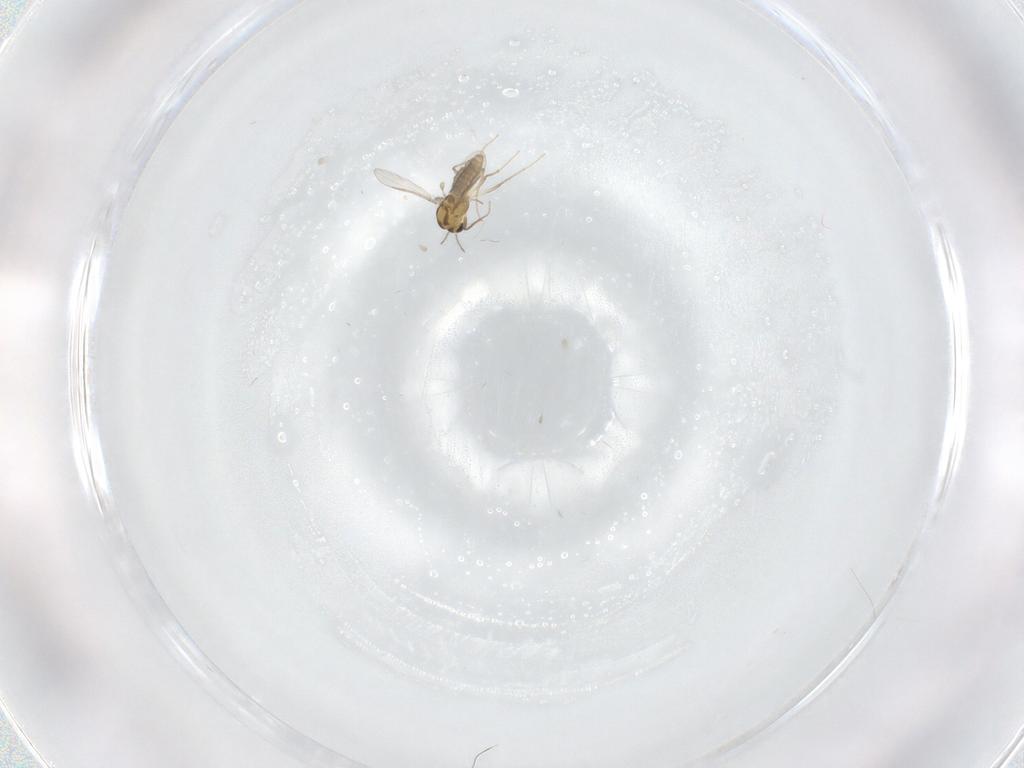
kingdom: Animalia
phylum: Arthropoda
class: Insecta
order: Diptera
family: Chironomidae
